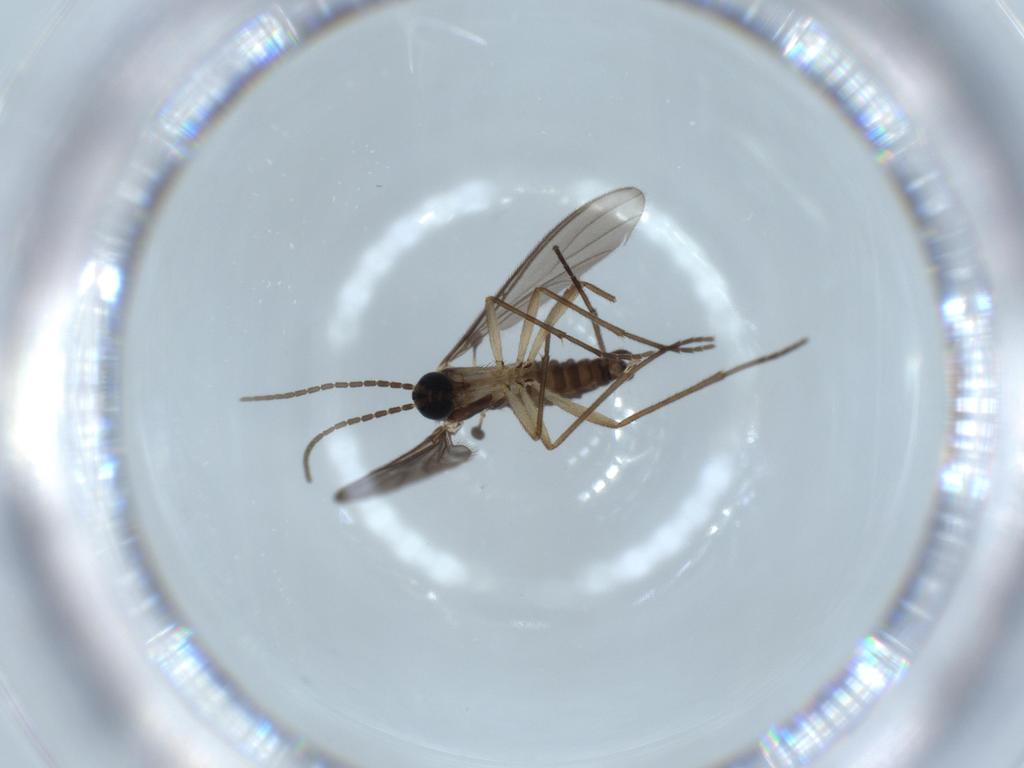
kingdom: Animalia
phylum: Arthropoda
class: Insecta
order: Diptera
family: Sciaridae
